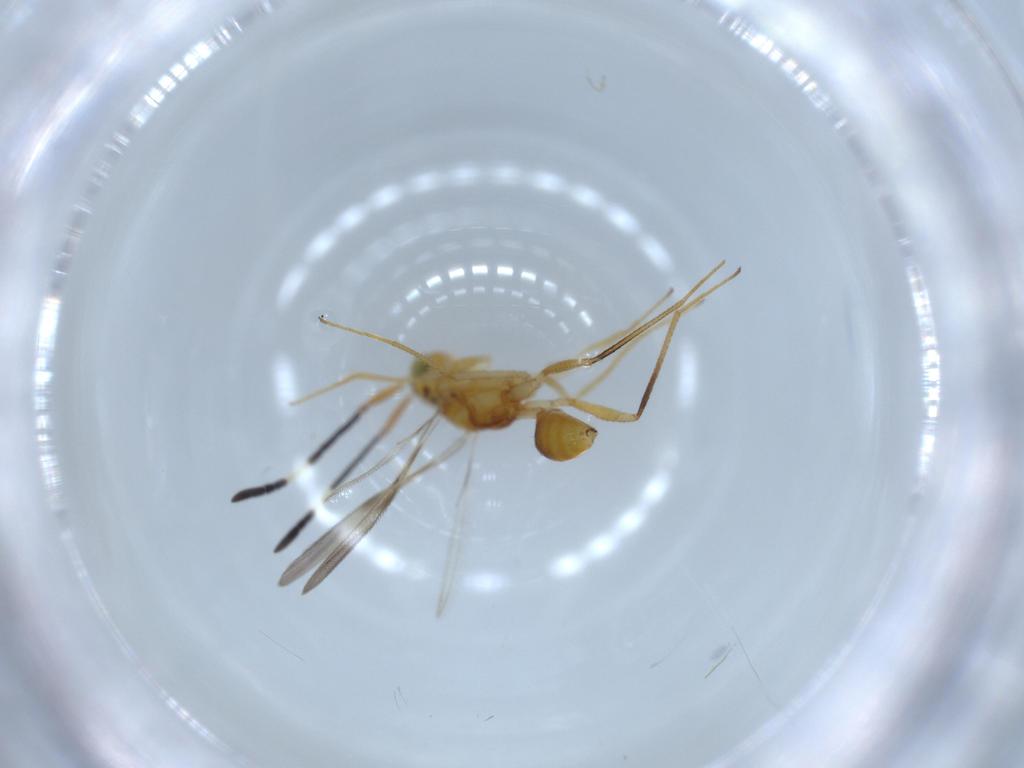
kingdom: Animalia
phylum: Arthropoda
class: Insecta
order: Hymenoptera
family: Mymaridae
